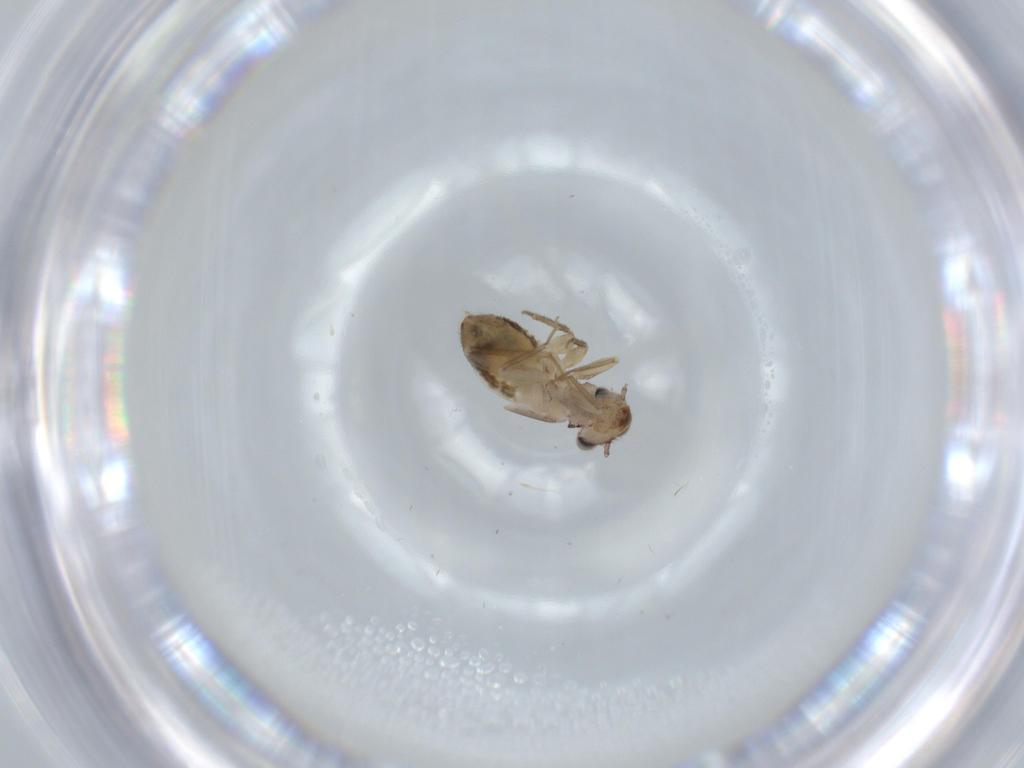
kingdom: Animalia
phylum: Arthropoda
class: Insecta
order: Psocodea
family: Lepidopsocidae
